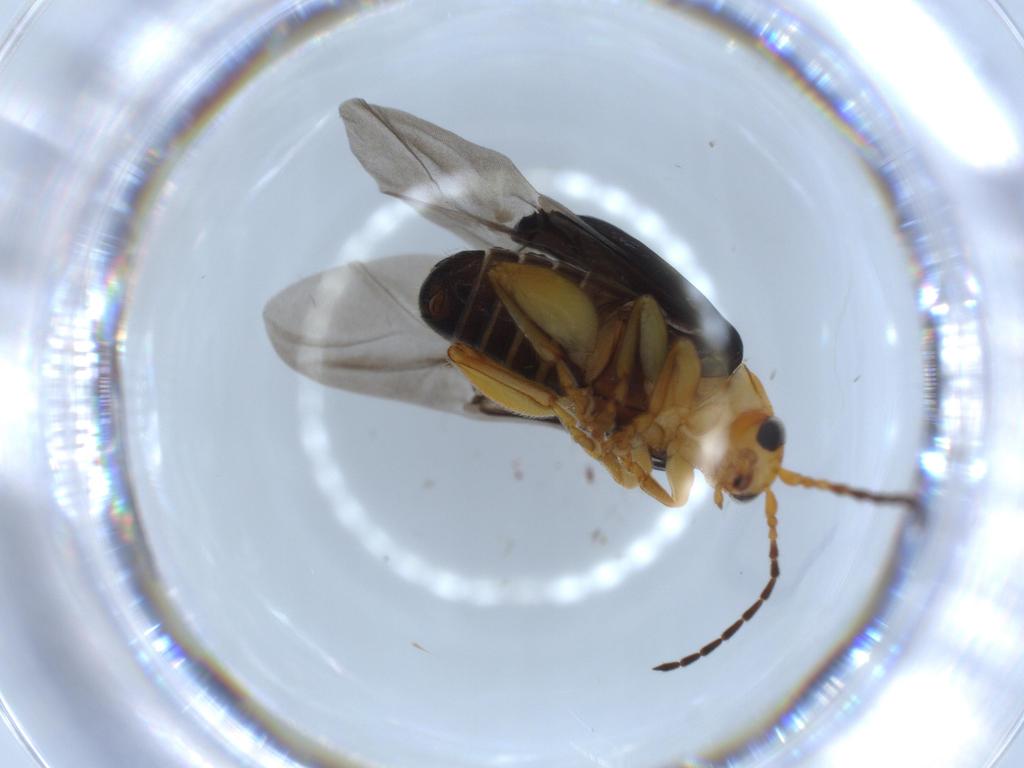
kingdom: Animalia
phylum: Arthropoda
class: Insecta
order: Coleoptera
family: Chrysomelidae
